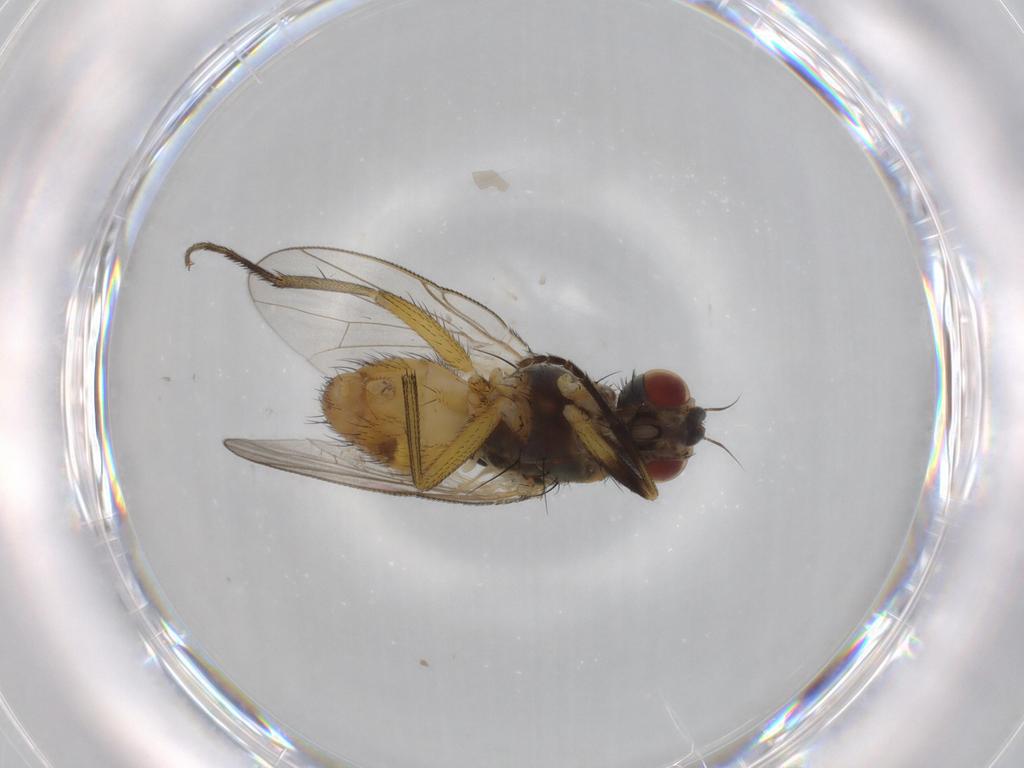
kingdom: Animalia
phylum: Arthropoda
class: Insecta
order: Diptera
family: Muscidae
